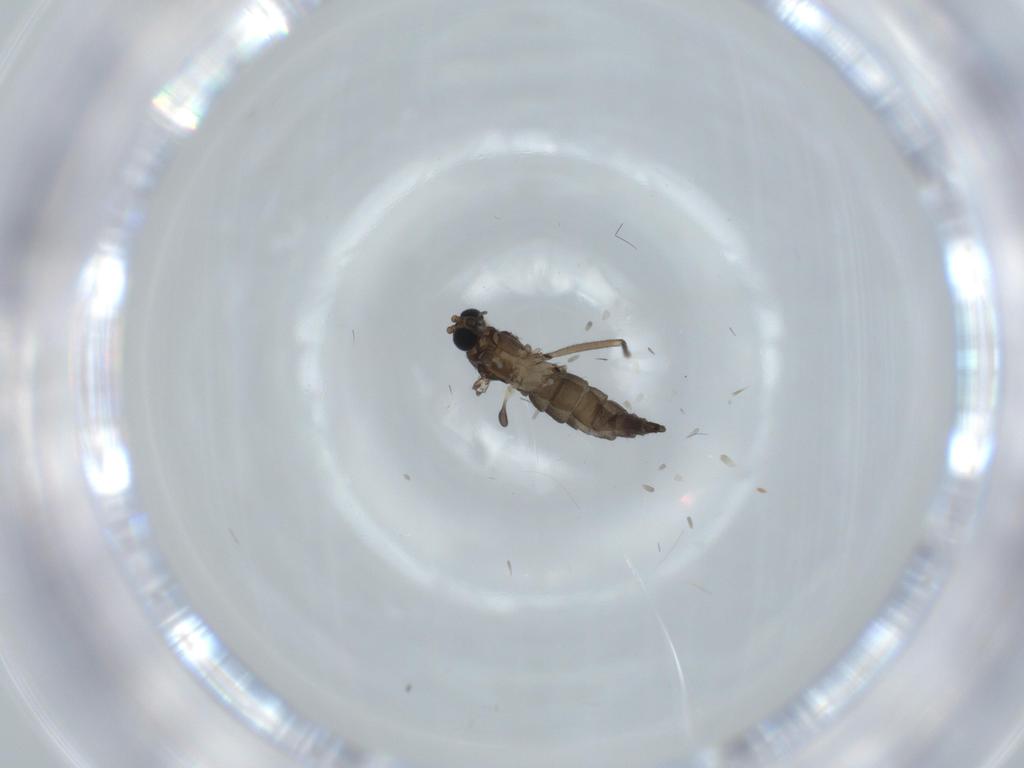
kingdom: Animalia
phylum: Arthropoda
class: Insecta
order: Diptera
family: Sciaridae
